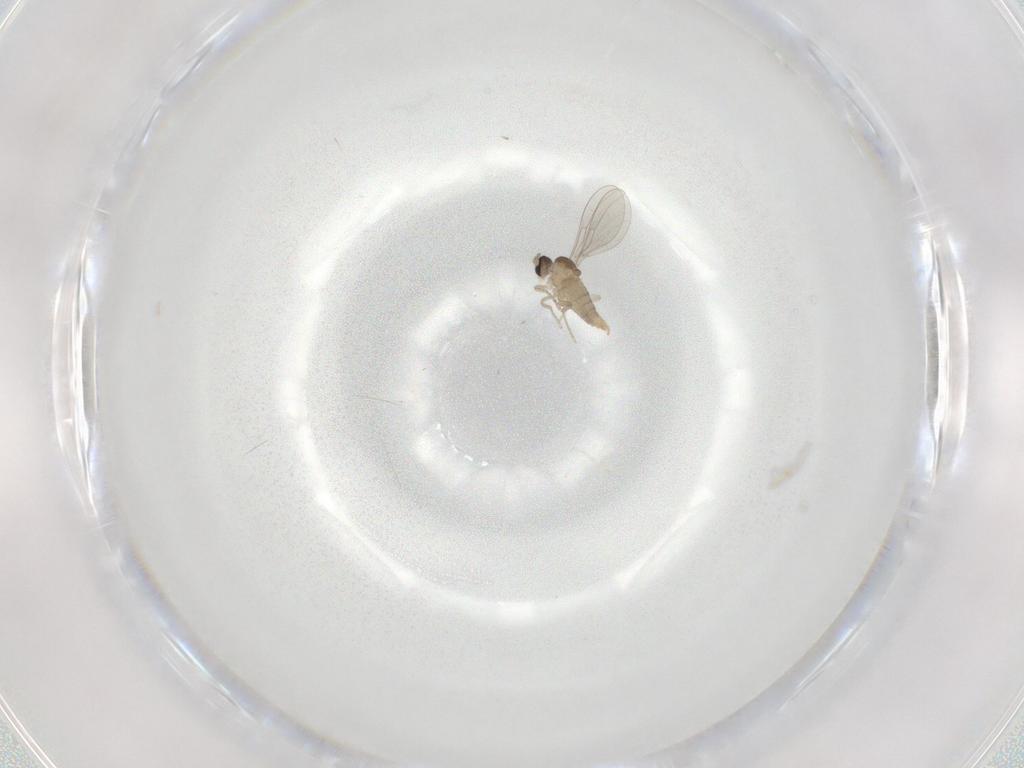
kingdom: Animalia
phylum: Arthropoda
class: Insecta
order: Diptera
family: Cecidomyiidae
